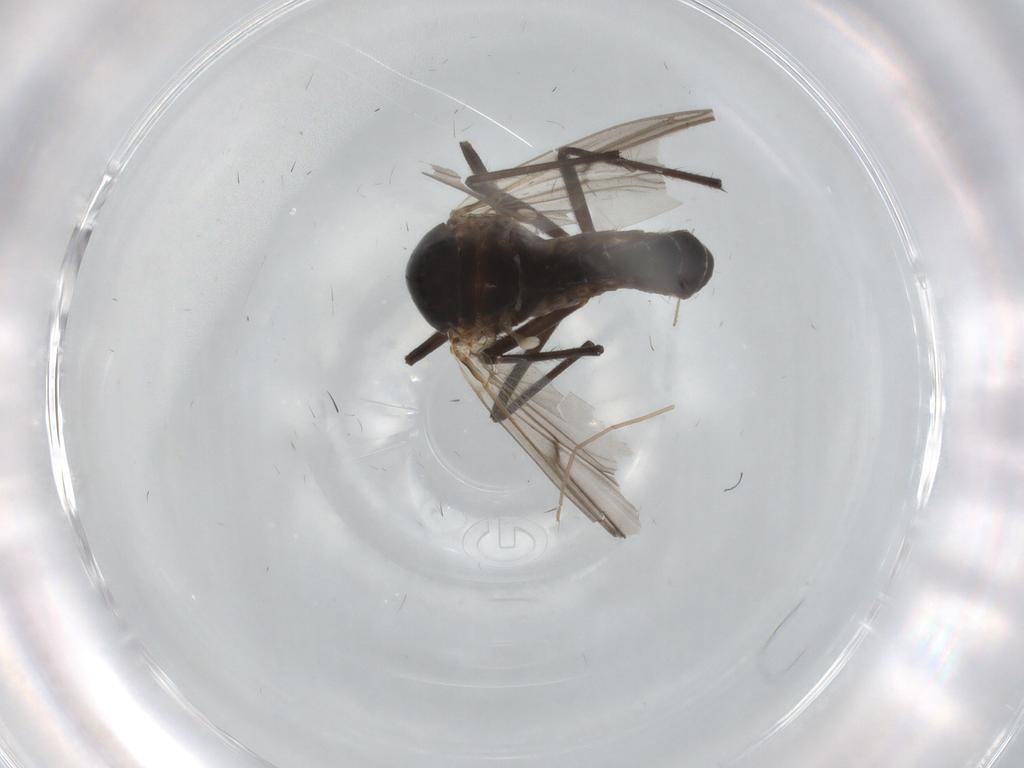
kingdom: Animalia
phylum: Arthropoda
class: Insecta
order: Diptera
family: Chironomidae
